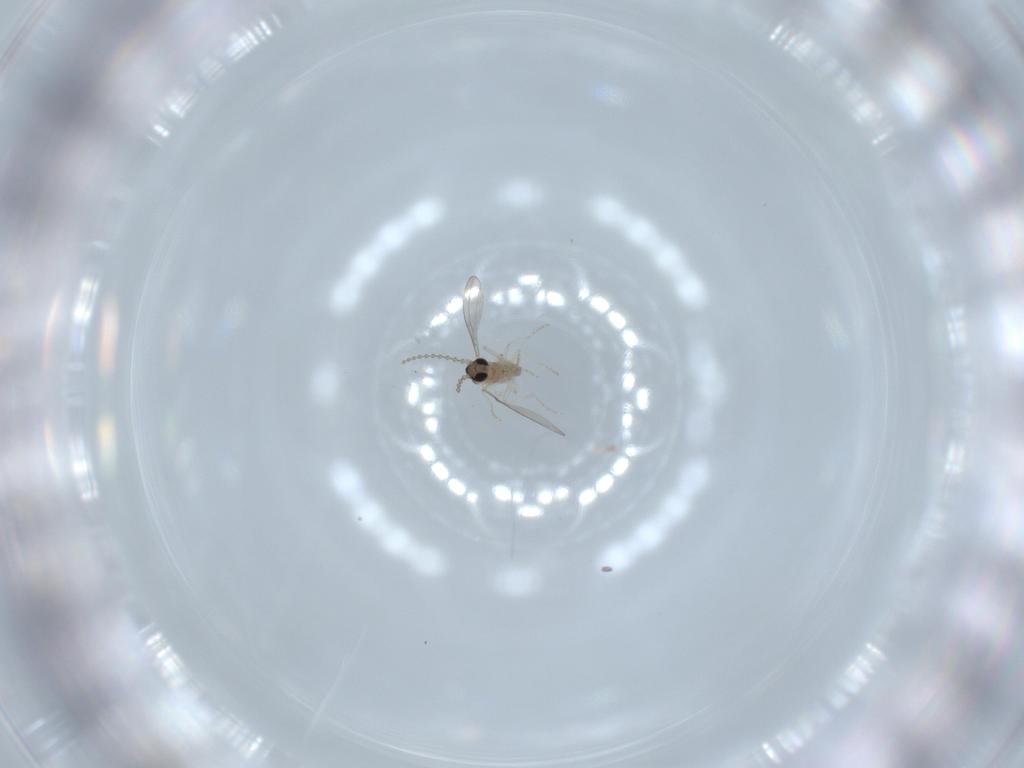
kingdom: Animalia
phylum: Arthropoda
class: Insecta
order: Diptera
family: Cecidomyiidae
